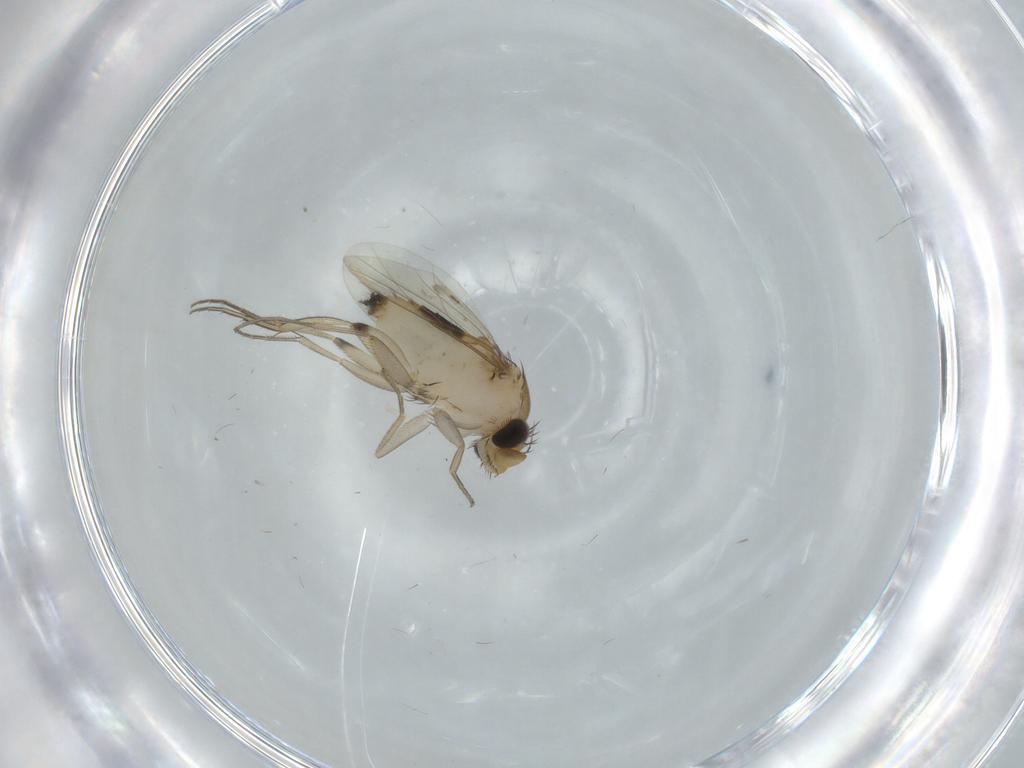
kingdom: Animalia
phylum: Arthropoda
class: Insecta
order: Diptera
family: Phoridae
